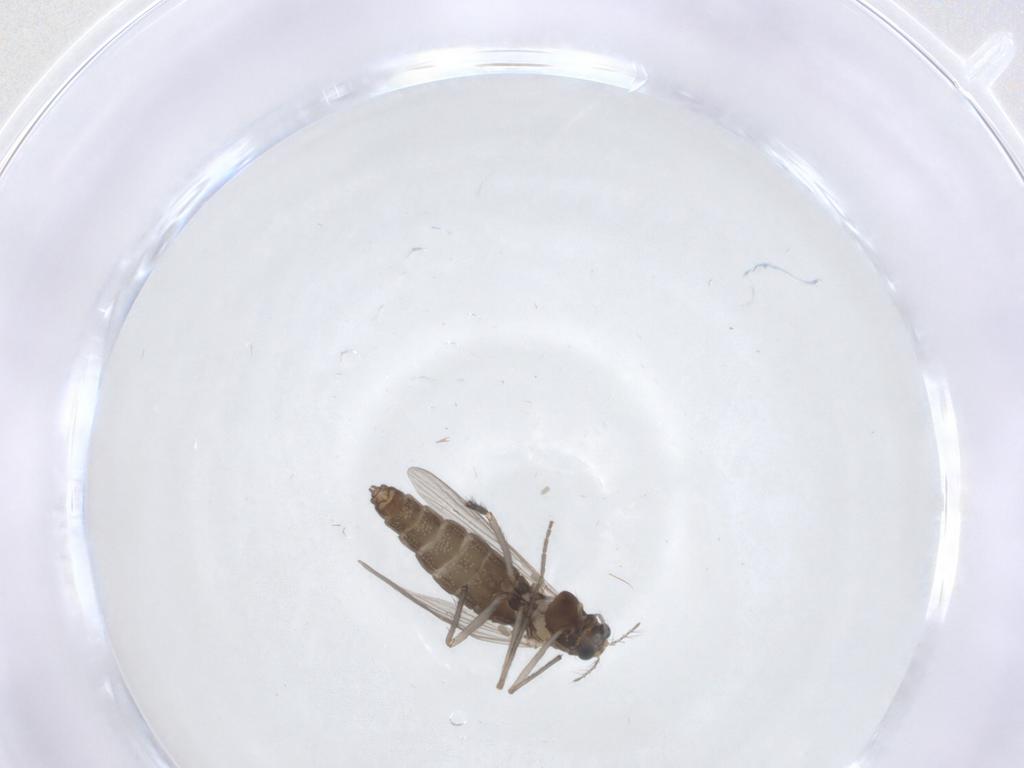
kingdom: Animalia
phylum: Arthropoda
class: Insecta
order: Diptera
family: Chironomidae
